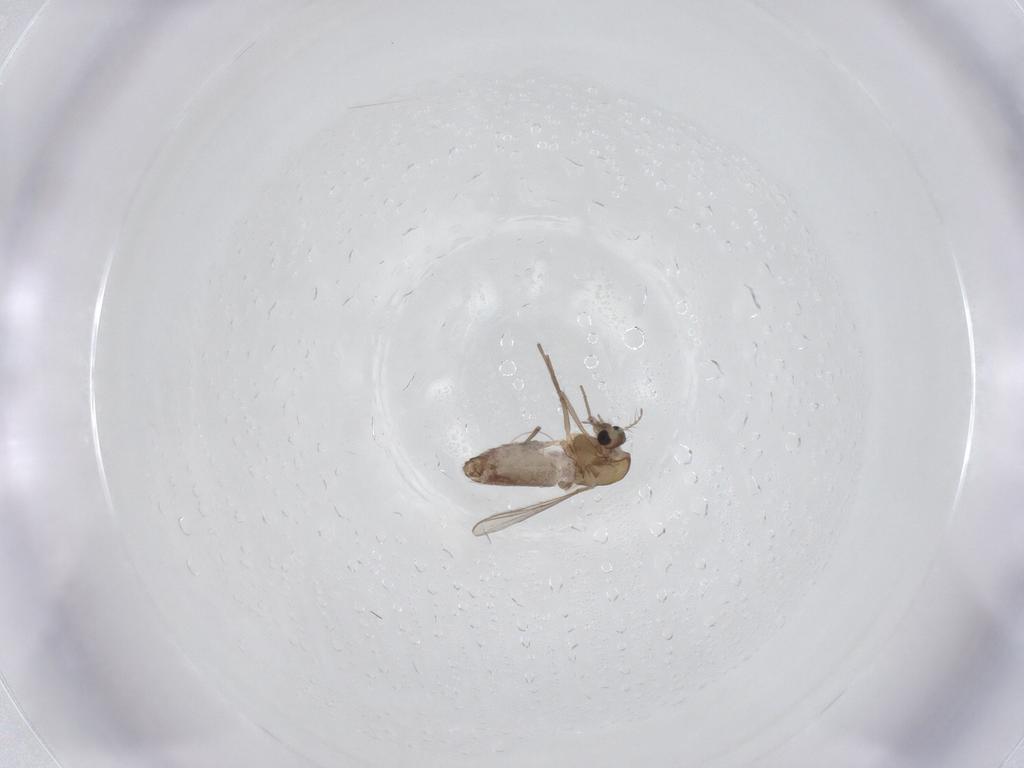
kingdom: Animalia
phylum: Arthropoda
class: Insecta
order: Diptera
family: Chironomidae
